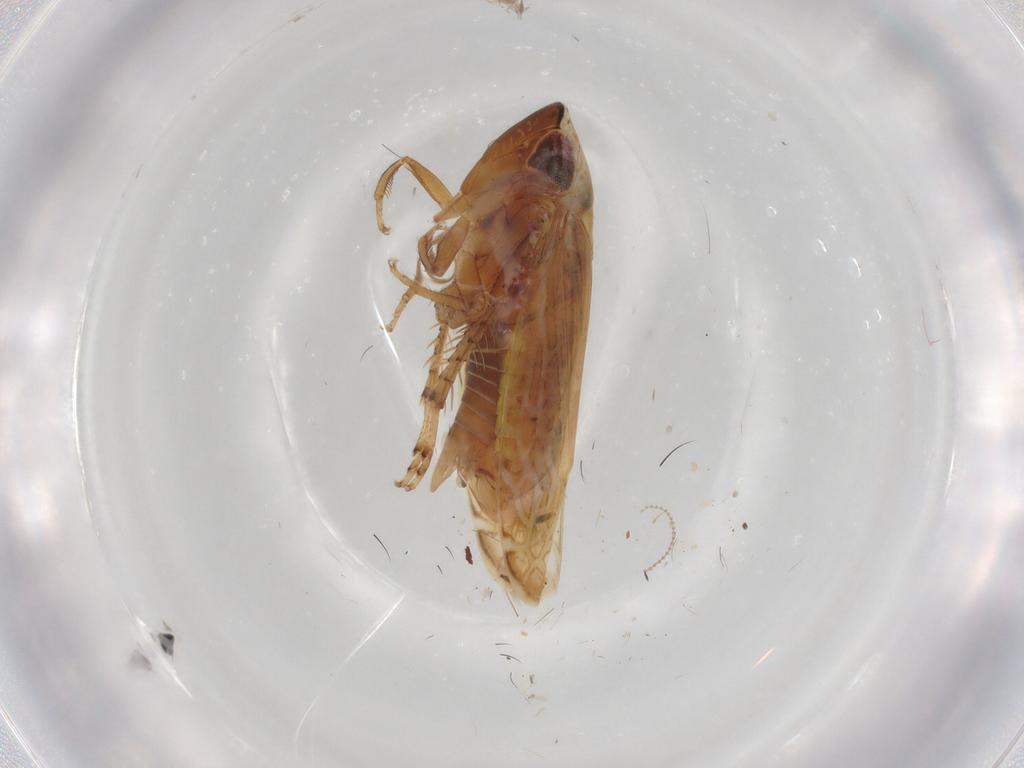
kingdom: Animalia
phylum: Arthropoda
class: Insecta
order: Hemiptera
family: Cicadellidae
